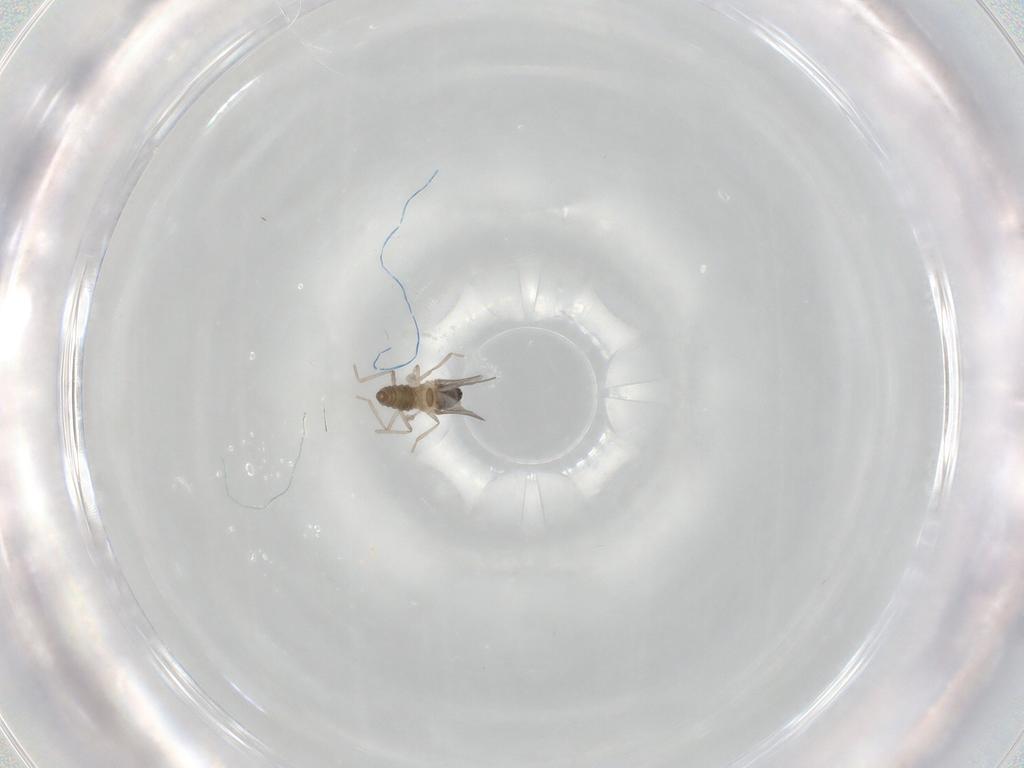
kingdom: Animalia
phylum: Arthropoda
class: Insecta
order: Diptera
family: Cecidomyiidae
